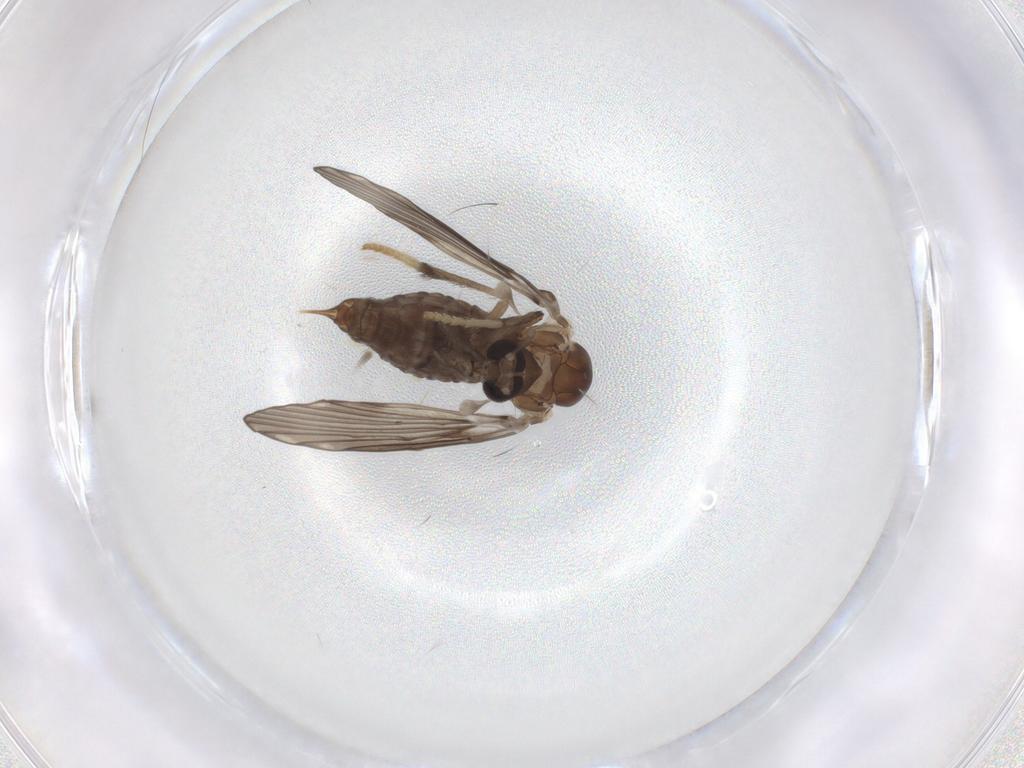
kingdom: Animalia
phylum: Arthropoda
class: Insecta
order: Diptera
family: Psychodidae
